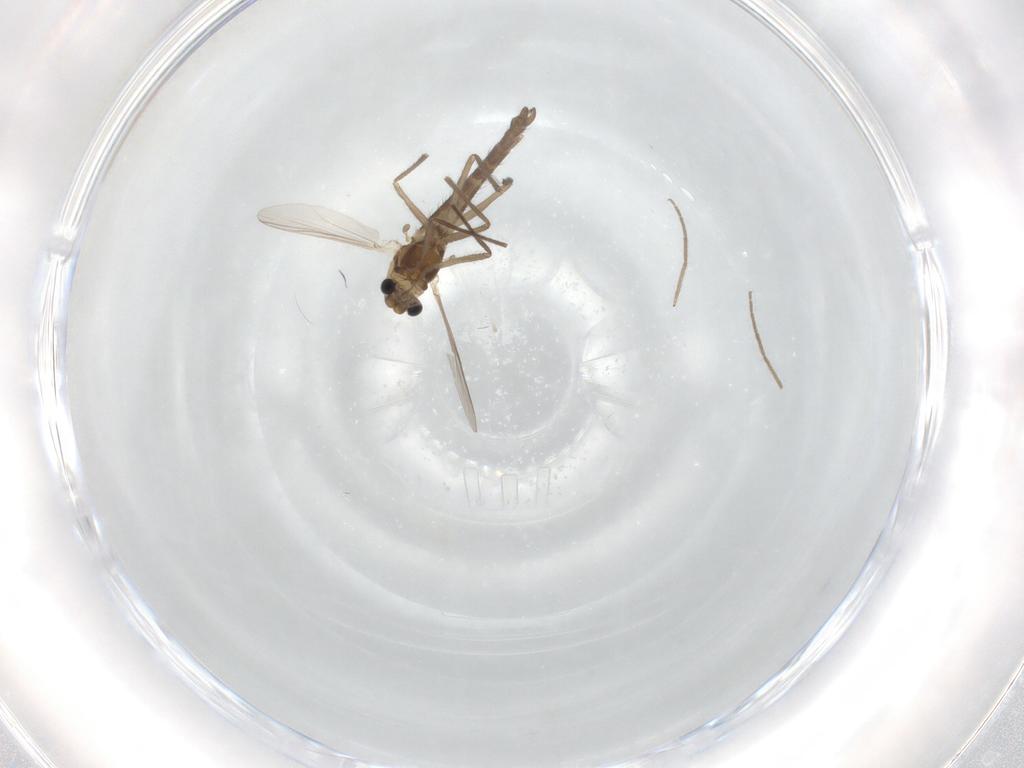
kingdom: Animalia
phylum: Arthropoda
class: Insecta
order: Diptera
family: Chironomidae
